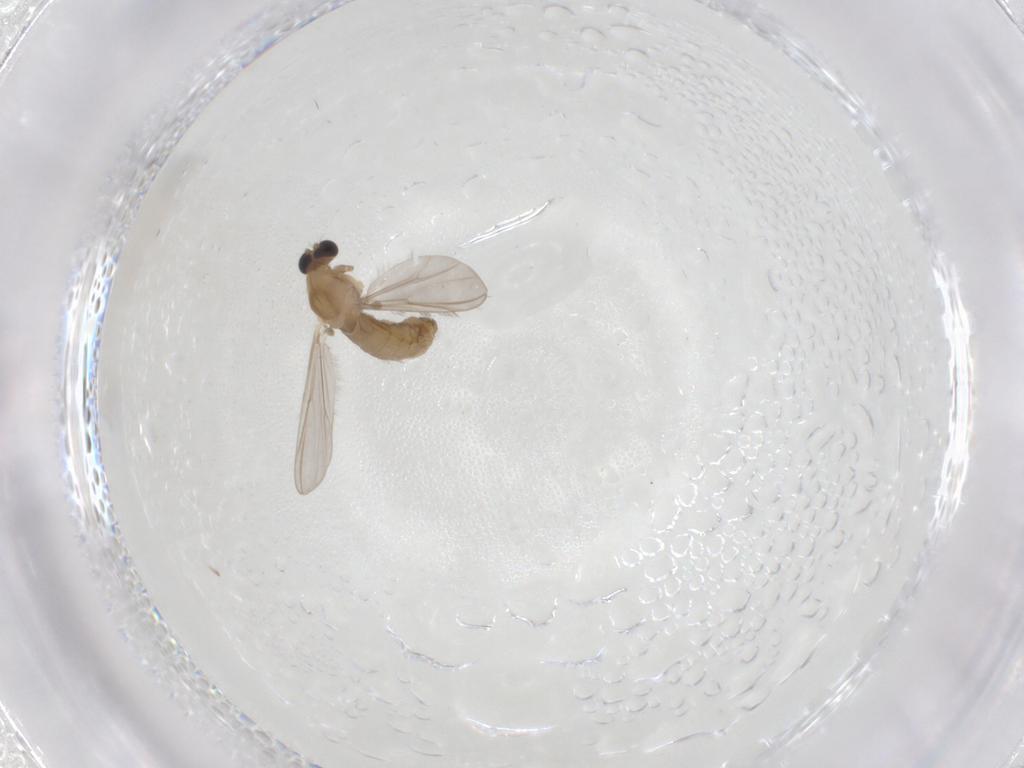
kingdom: Animalia
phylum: Arthropoda
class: Insecta
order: Diptera
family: Chironomidae
